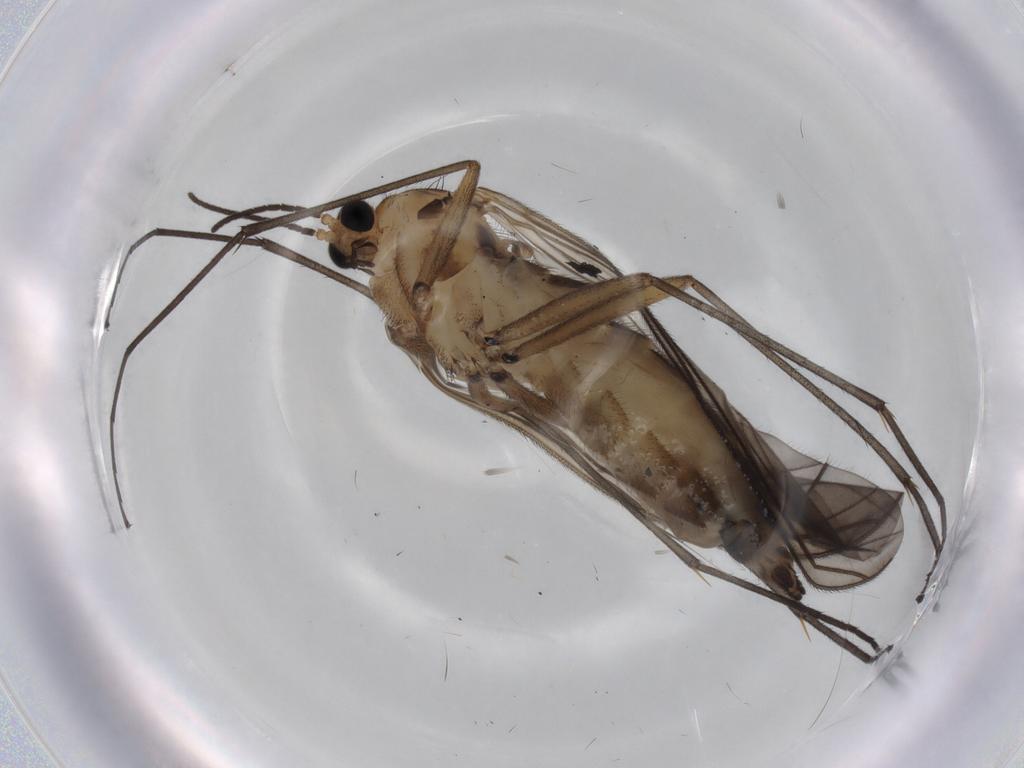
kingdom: Animalia
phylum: Arthropoda
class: Insecta
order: Diptera
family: Sciaridae
